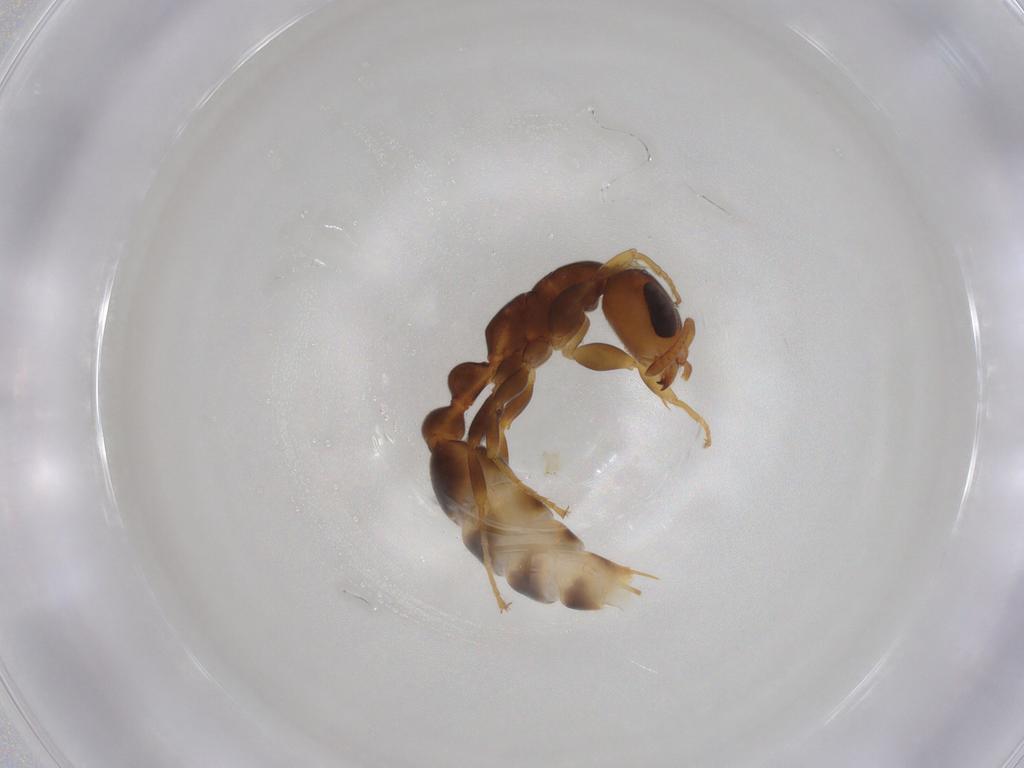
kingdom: Animalia
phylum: Arthropoda
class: Insecta
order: Hymenoptera
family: Formicidae
